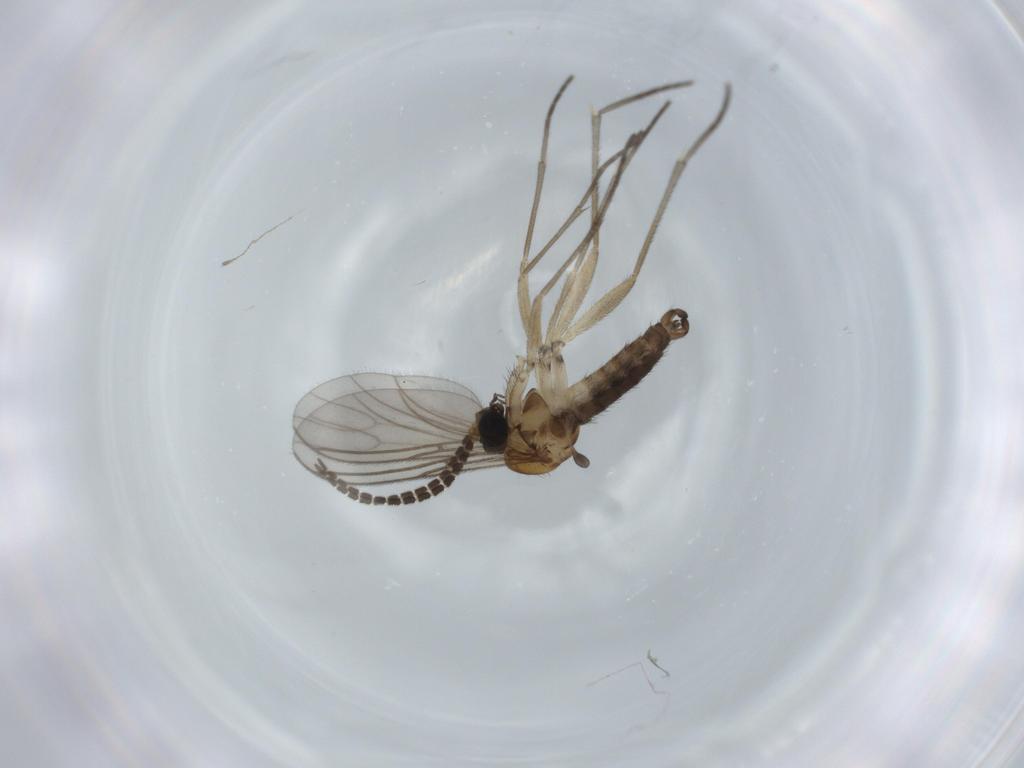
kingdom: Animalia
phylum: Arthropoda
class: Insecta
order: Diptera
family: Sciaridae
